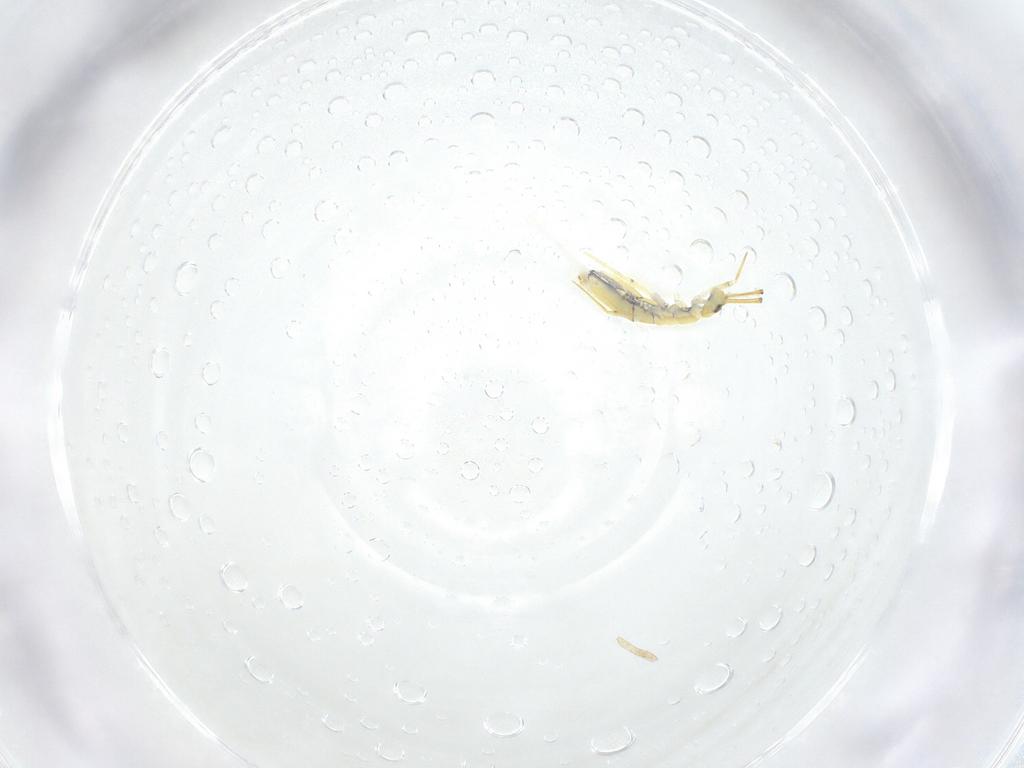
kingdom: Animalia
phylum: Arthropoda
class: Collembola
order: Entomobryomorpha
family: Paronellidae
